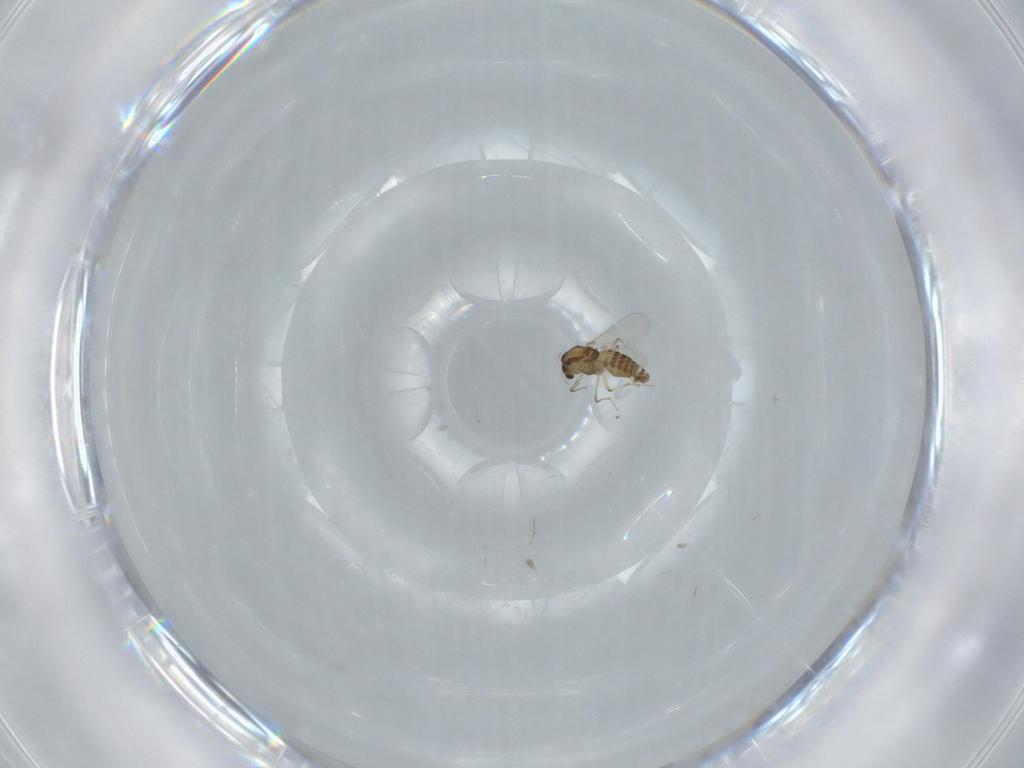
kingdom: Animalia
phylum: Arthropoda
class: Insecta
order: Diptera
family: Chironomidae
